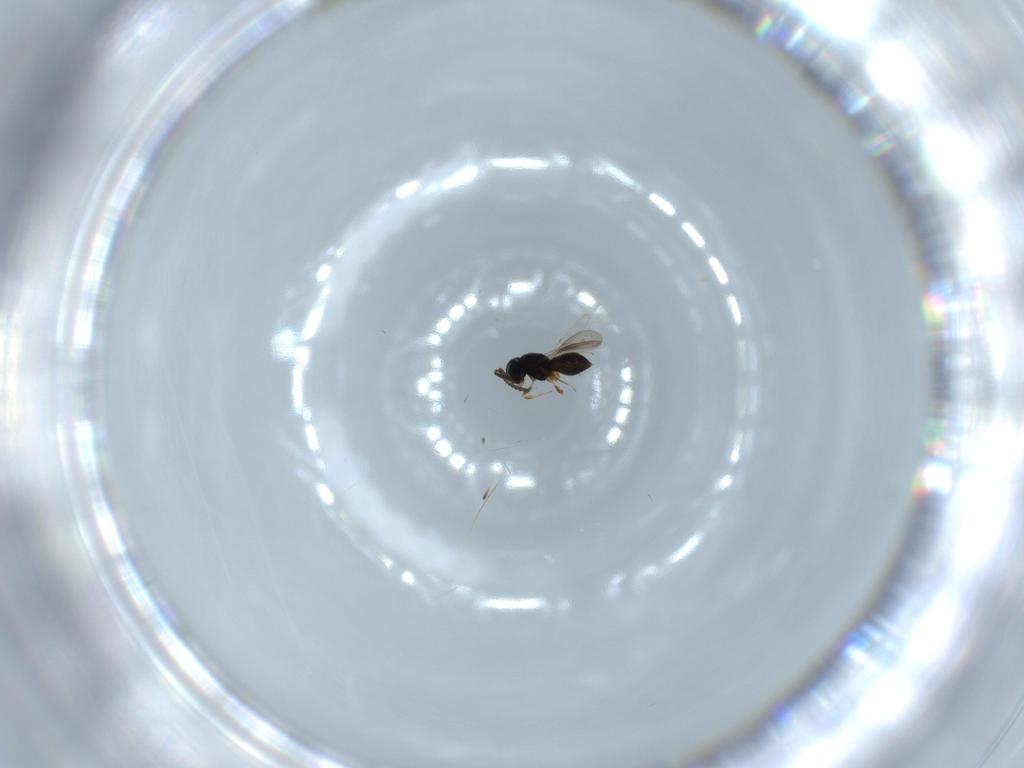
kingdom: Animalia
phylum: Arthropoda
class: Insecta
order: Hymenoptera
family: Scelionidae
